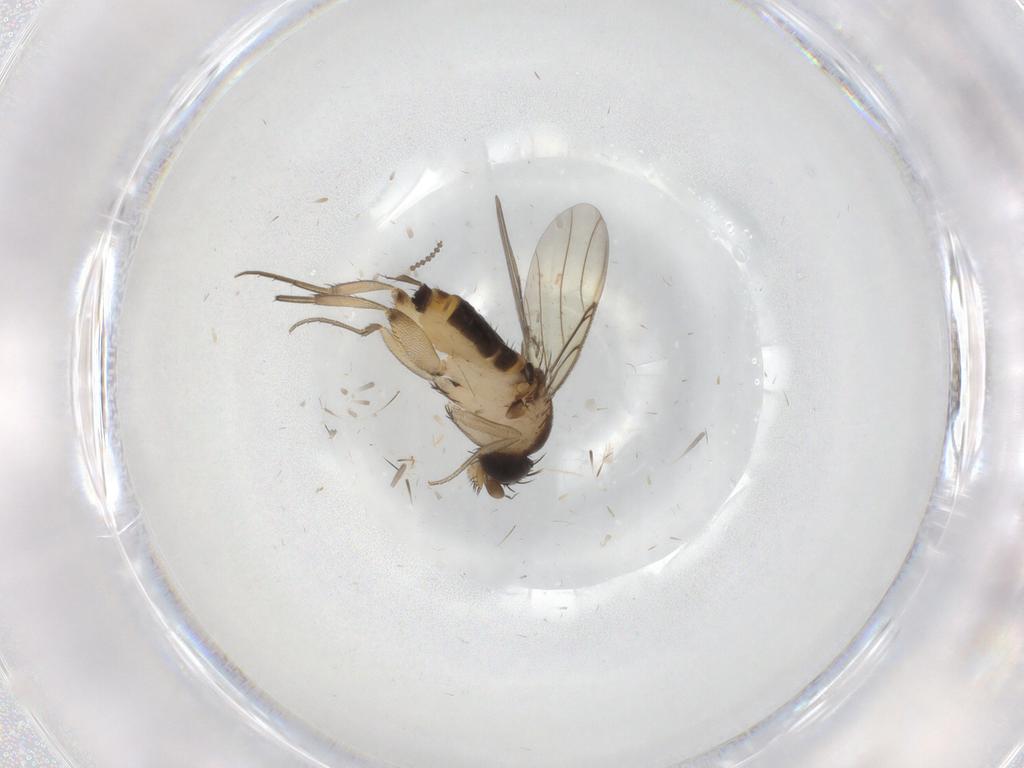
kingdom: Animalia
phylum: Arthropoda
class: Insecta
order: Diptera
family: Phoridae
